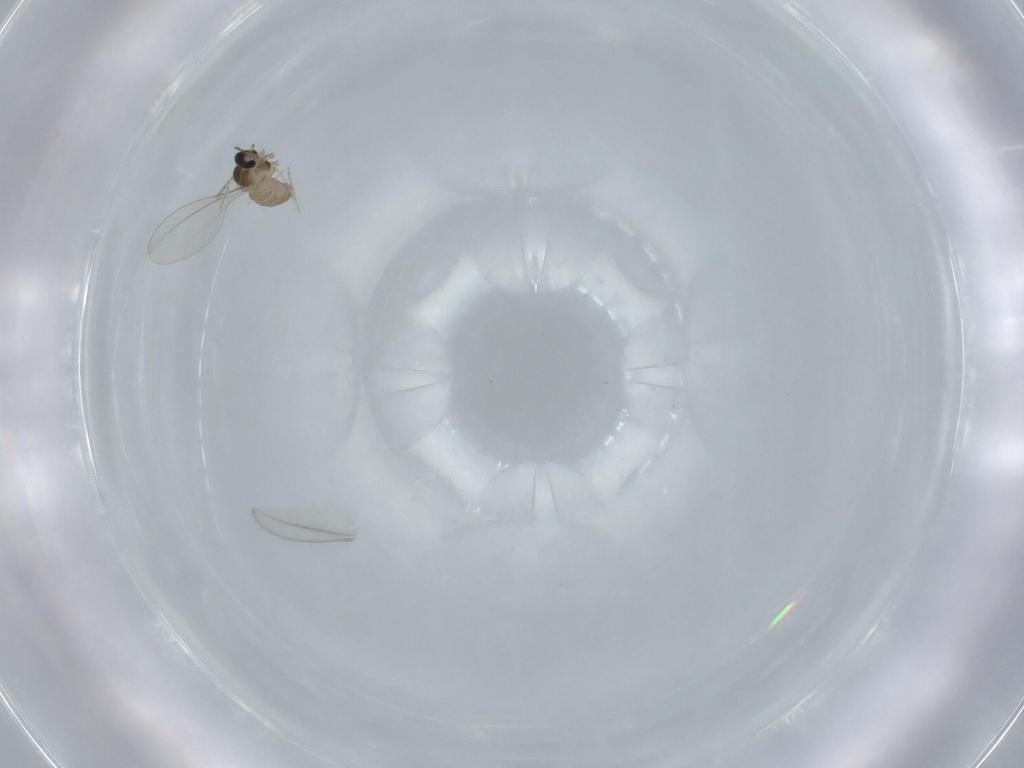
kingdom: Animalia
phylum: Arthropoda
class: Insecta
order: Diptera
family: Cecidomyiidae
